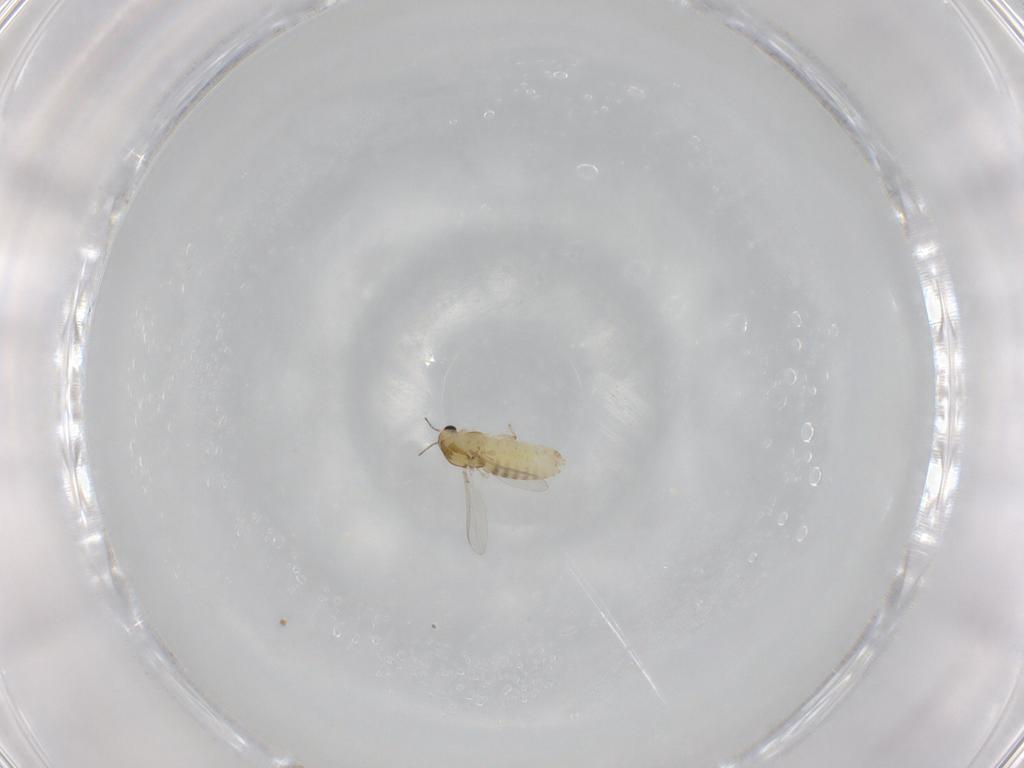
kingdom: Animalia
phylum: Arthropoda
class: Insecta
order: Diptera
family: Chironomidae
